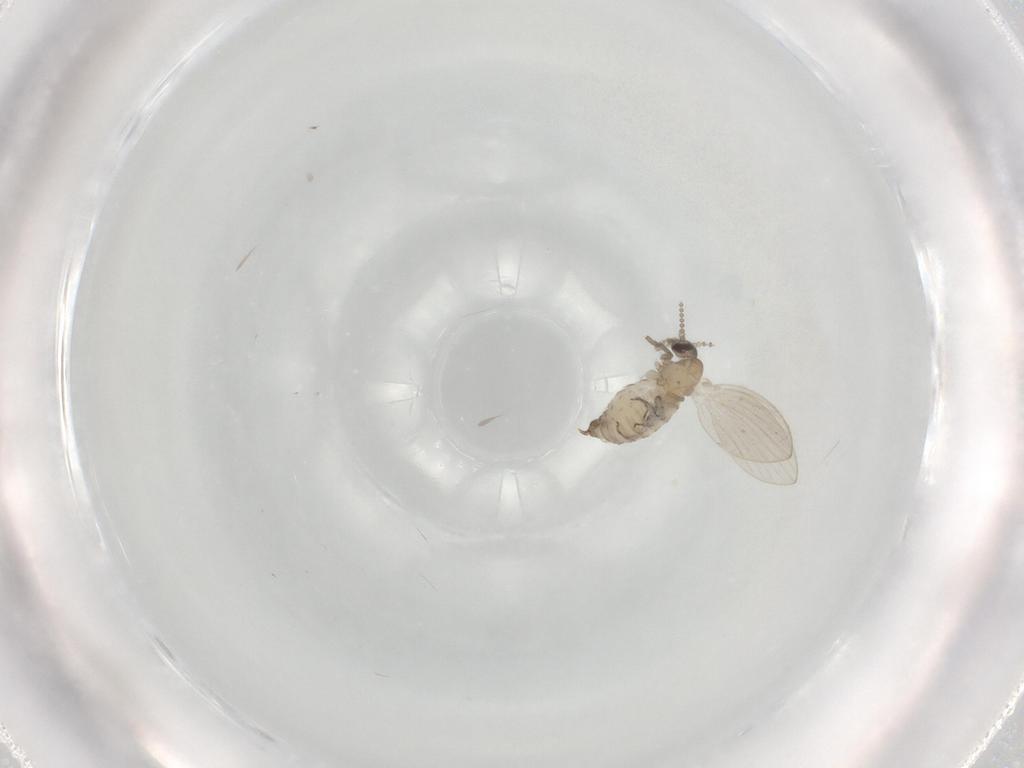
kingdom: Animalia
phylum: Arthropoda
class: Insecta
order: Diptera
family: Psychodidae
